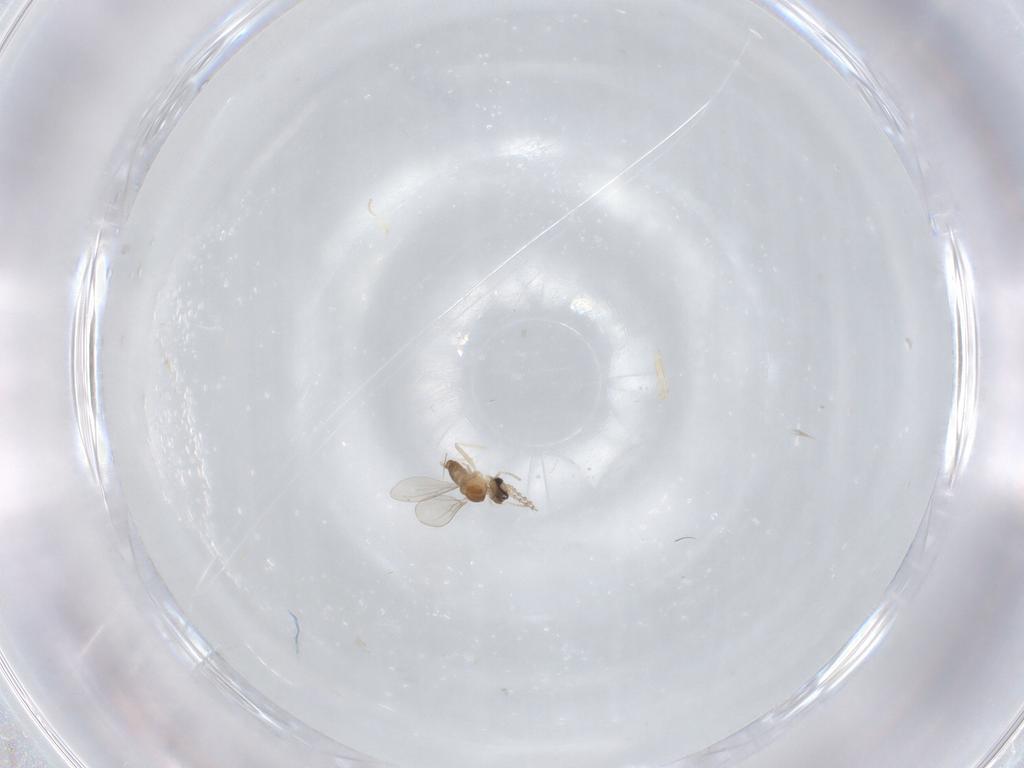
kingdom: Animalia
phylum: Arthropoda
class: Insecta
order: Diptera
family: Cecidomyiidae
